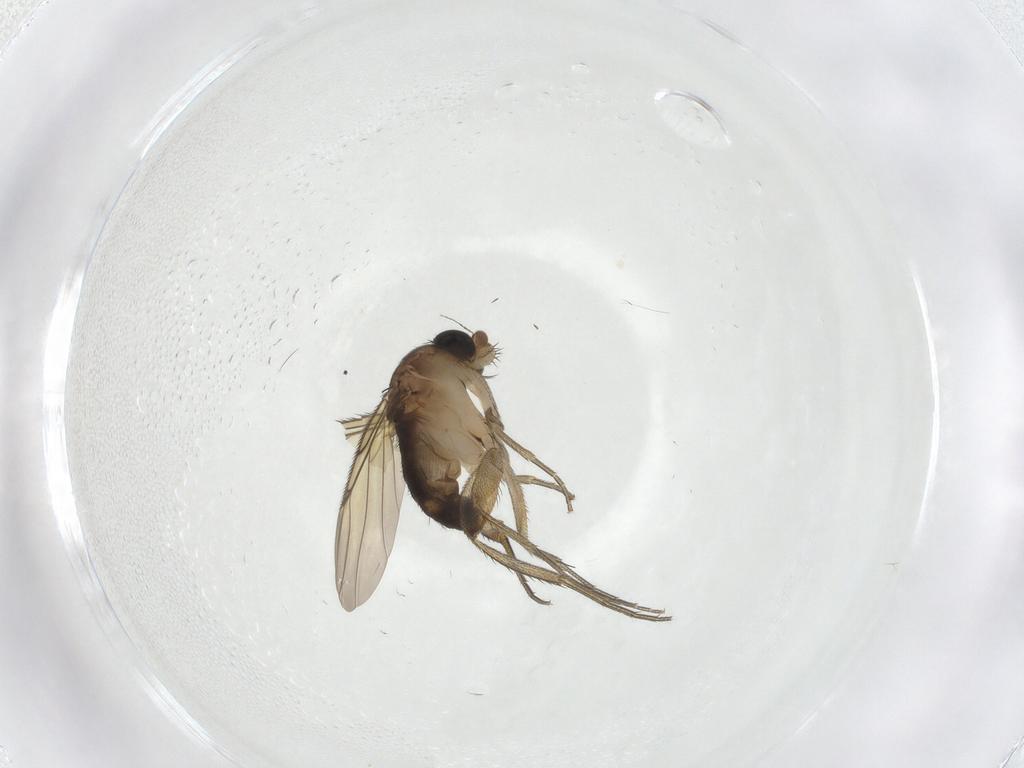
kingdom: Animalia
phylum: Arthropoda
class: Insecta
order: Diptera
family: Phoridae
